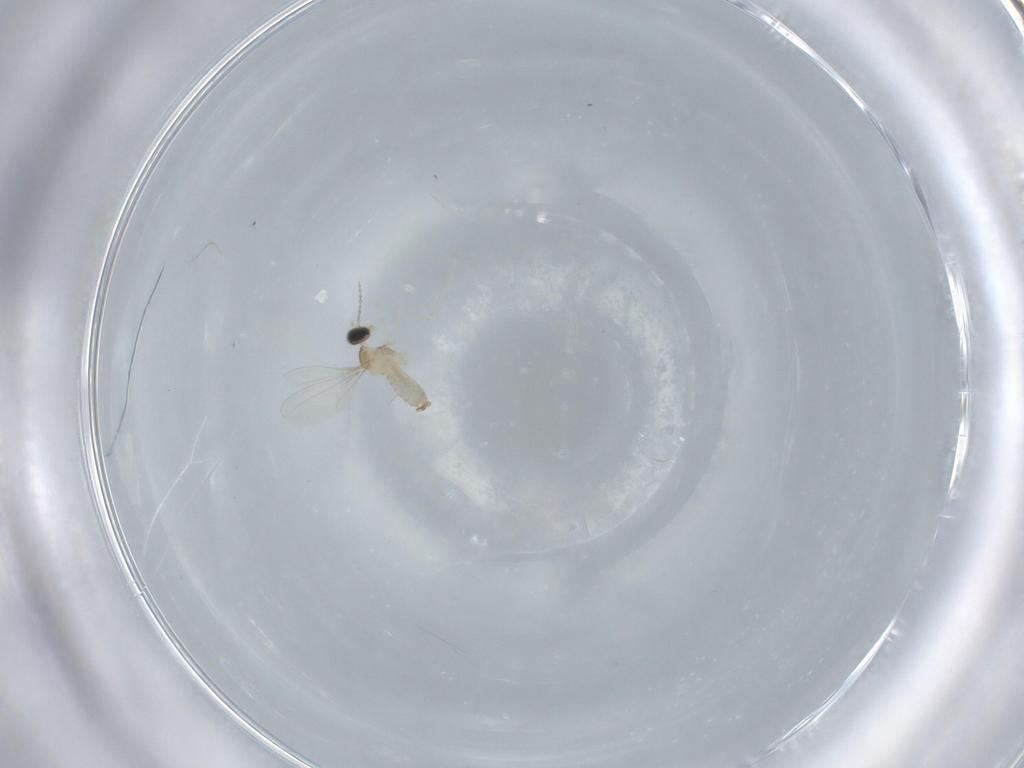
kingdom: Animalia
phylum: Arthropoda
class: Insecta
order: Diptera
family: Cecidomyiidae
